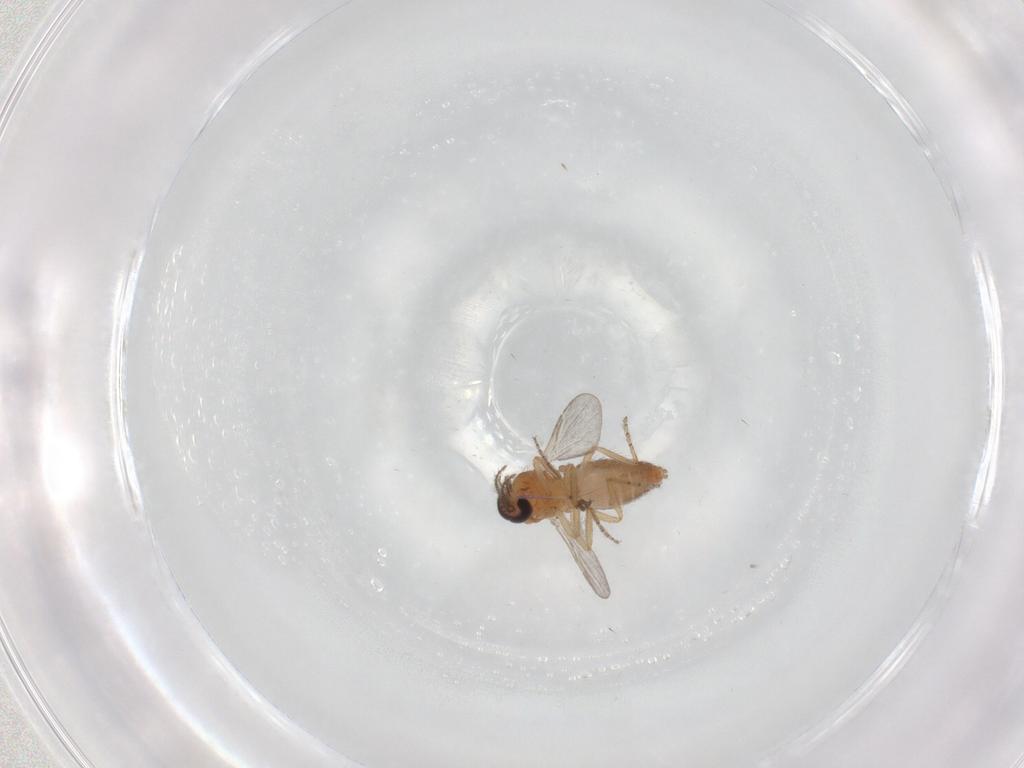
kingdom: Animalia
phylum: Arthropoda
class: Insecta
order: Diptera
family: Ceratopogonidae
